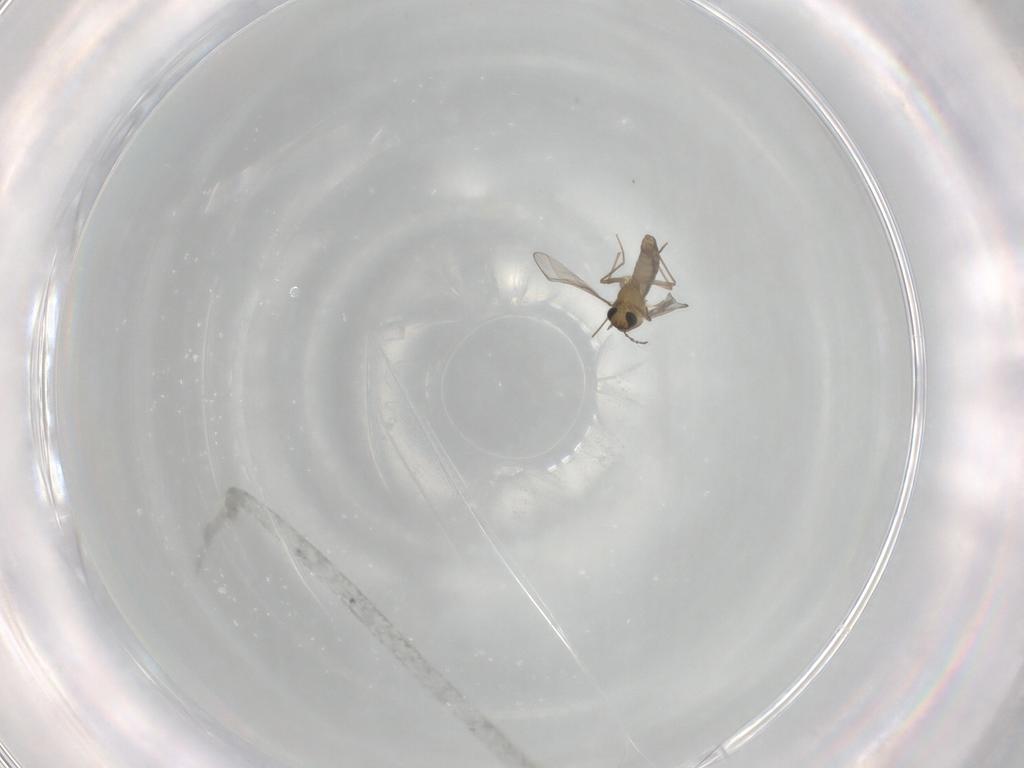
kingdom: Animalia
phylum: Arthropoda
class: Insecta
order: Diptera
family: Chironomidae
